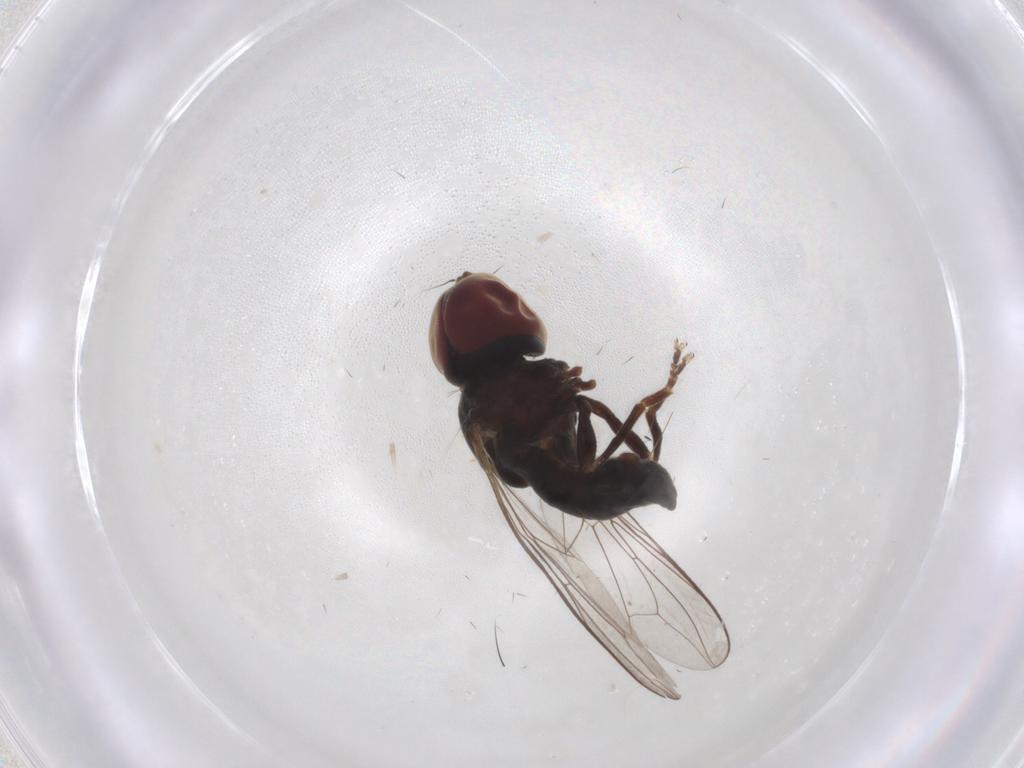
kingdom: Animalia
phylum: Arthropoda
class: Insecta
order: Diptera
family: Pipunculidae
